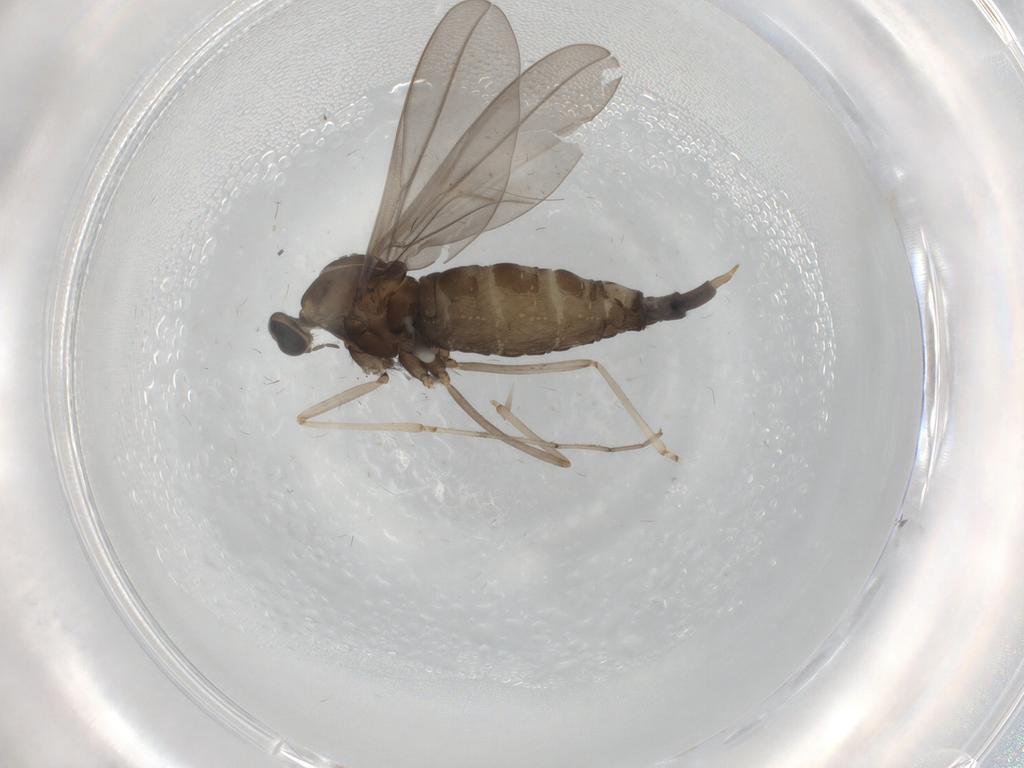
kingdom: Animalia
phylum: Arthropoda
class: Insecta
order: Diptera
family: Cecidomyiidae
